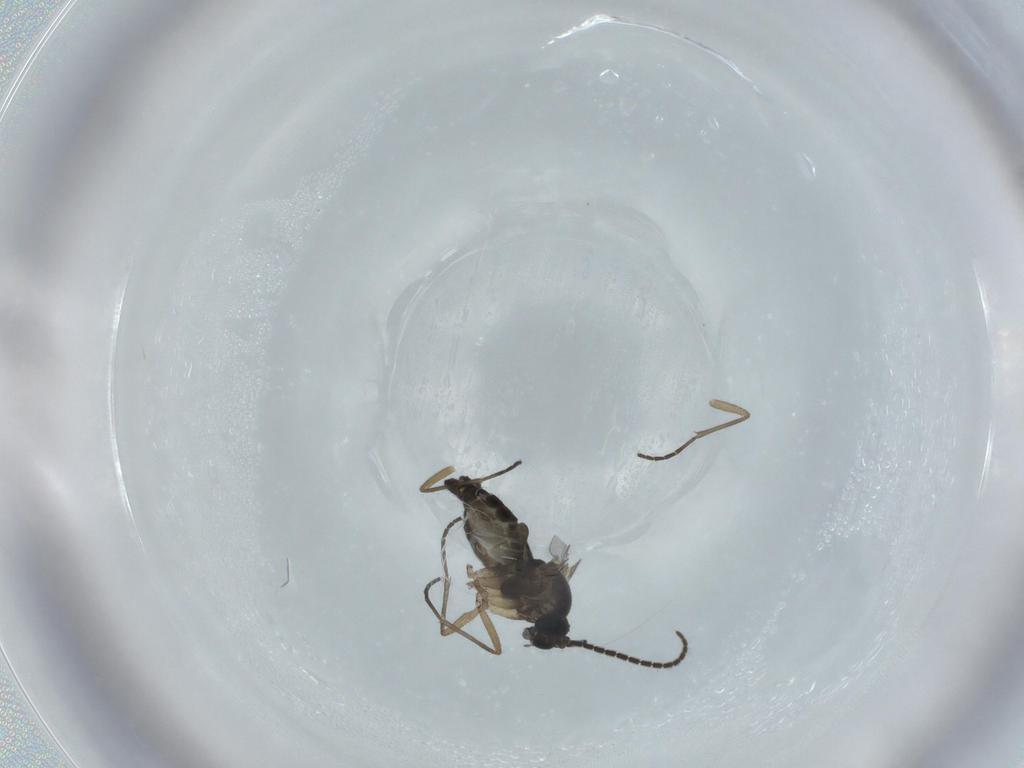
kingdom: Animalia
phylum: Arthropoda
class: Insecta
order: Diptera
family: Sciaridae
